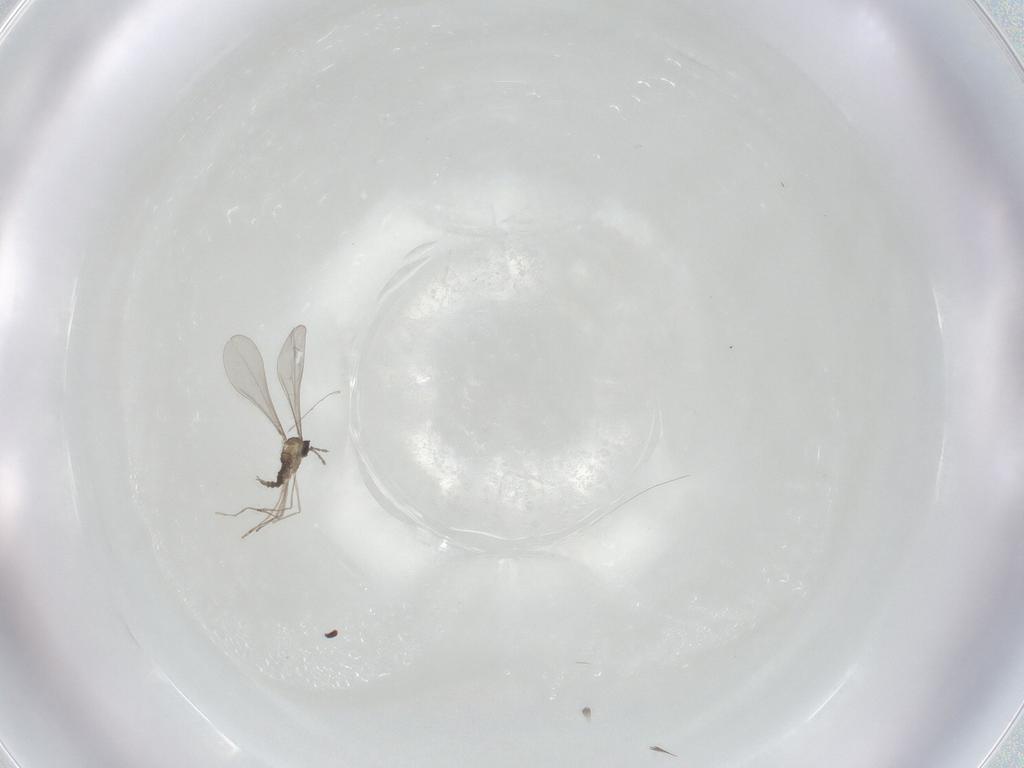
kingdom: Animalia
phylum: Arthropoda
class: Insecta
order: Diptera
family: Cecidomyiidae
